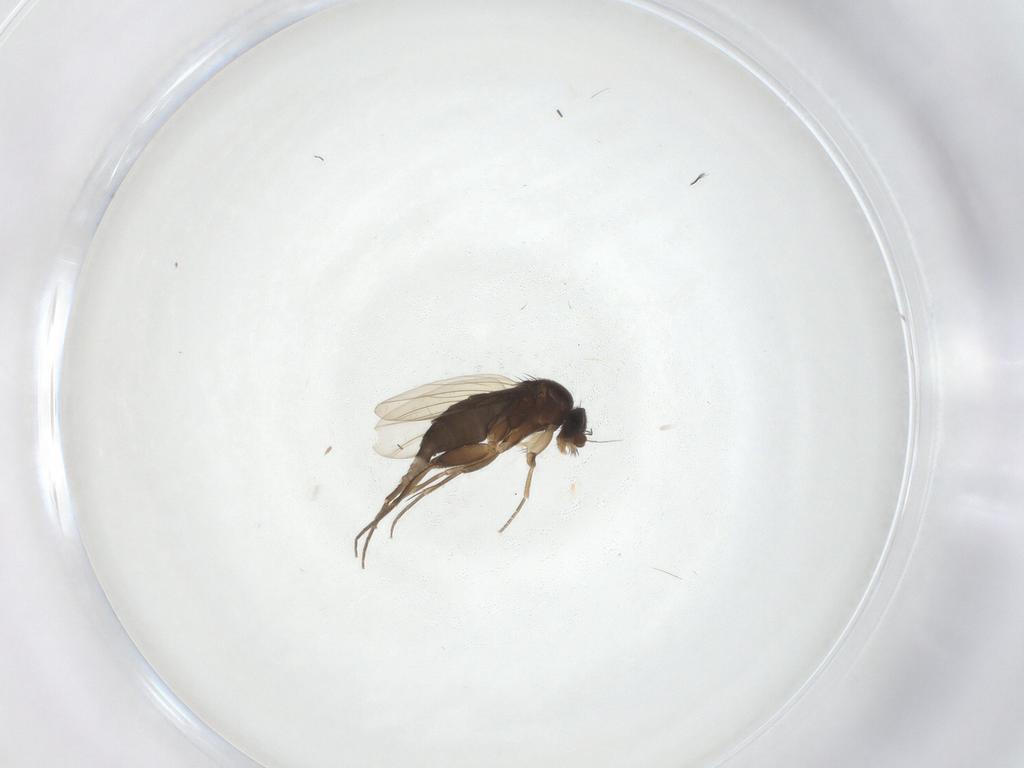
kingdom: Animalia
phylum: Arthropoda
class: Insecta
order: Diptera
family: Phoridae
